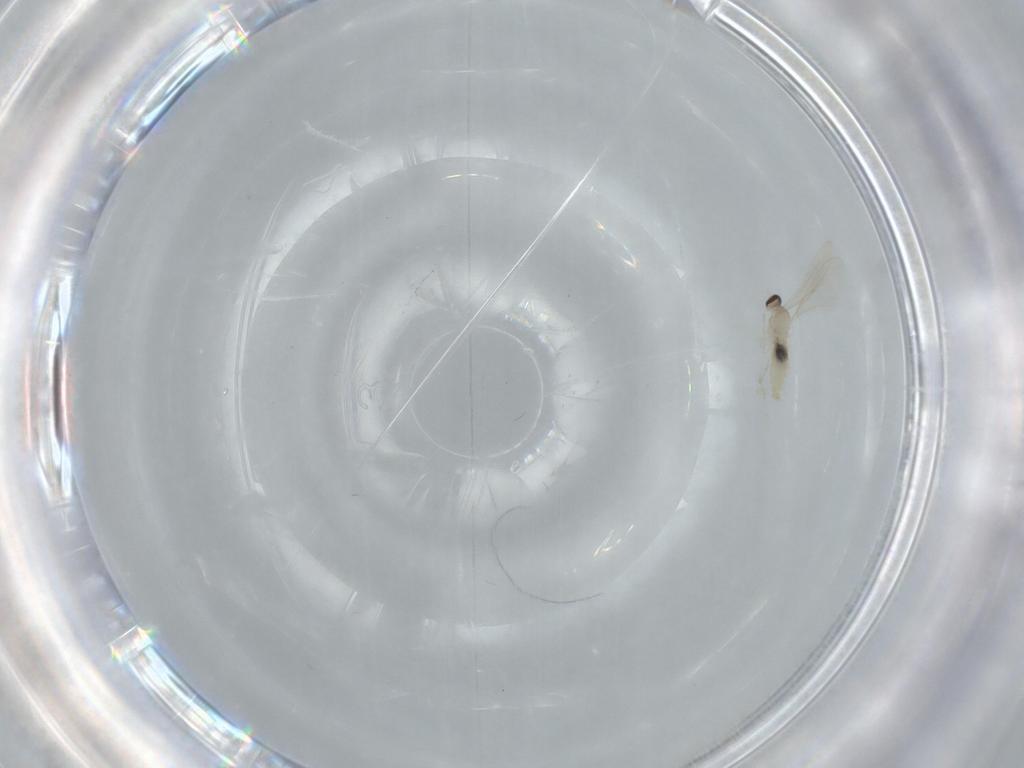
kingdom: Animalia
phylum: Arthropoda
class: Insecta
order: Diptera
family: Cecidomyiidae
